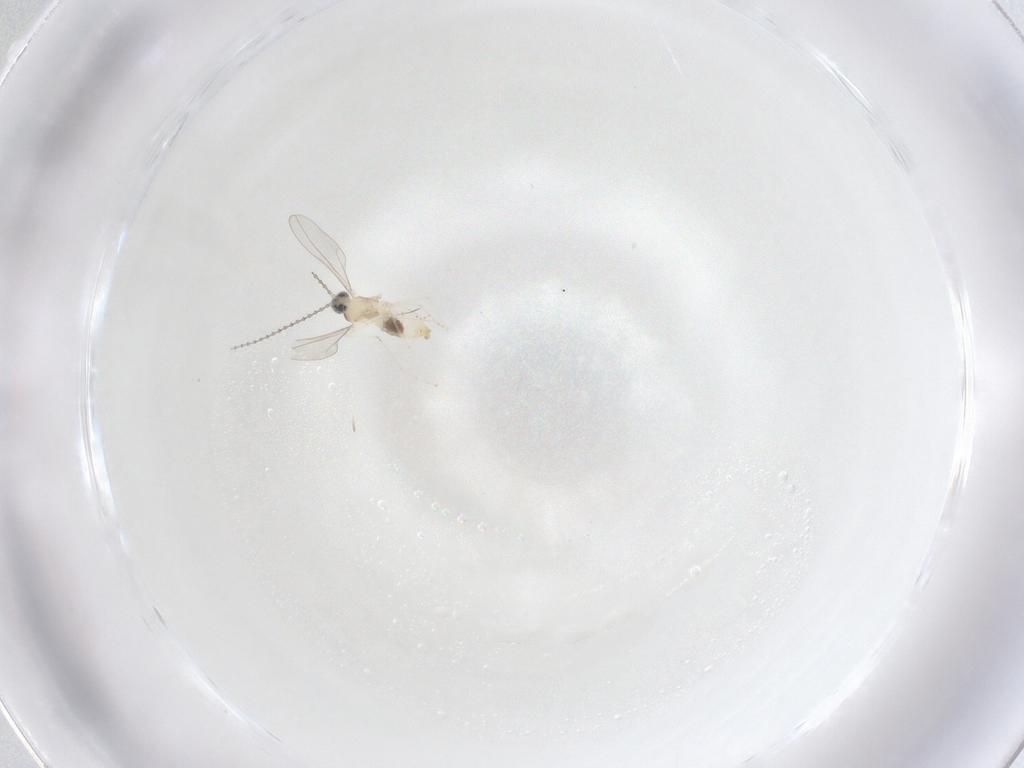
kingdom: Animalia
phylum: Arthropoda
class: Insecta
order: Diptera
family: Cecidomyiidae
